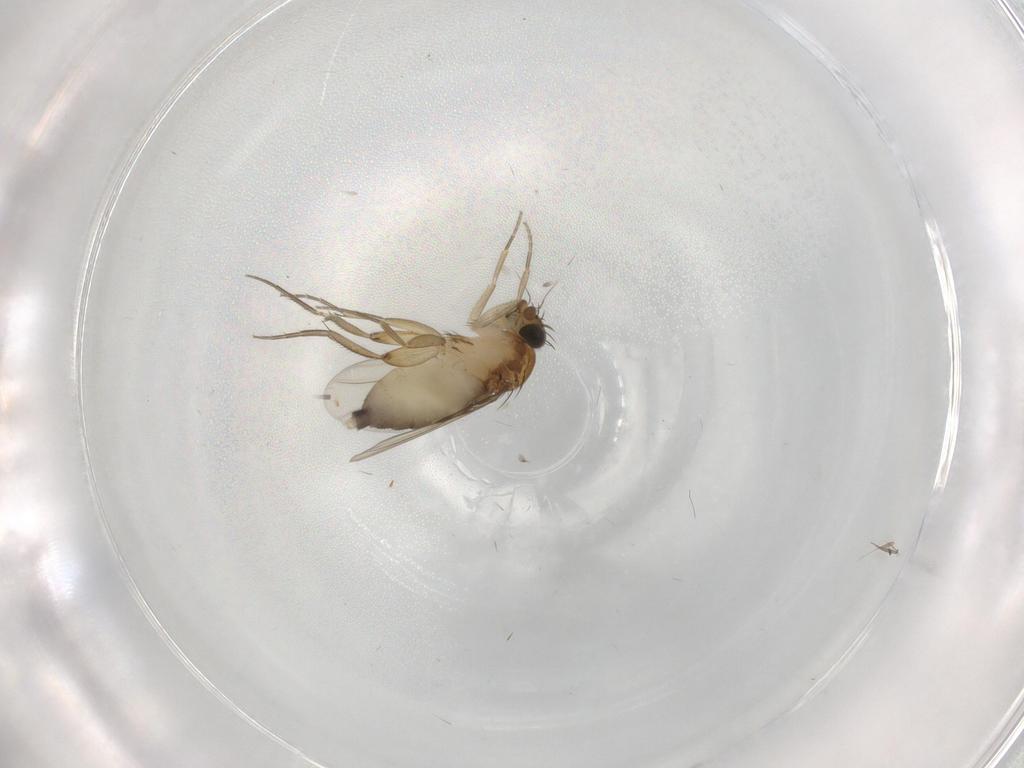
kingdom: Animalia
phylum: Arthropoda
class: Insecta
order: Diptera
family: Phoridae
